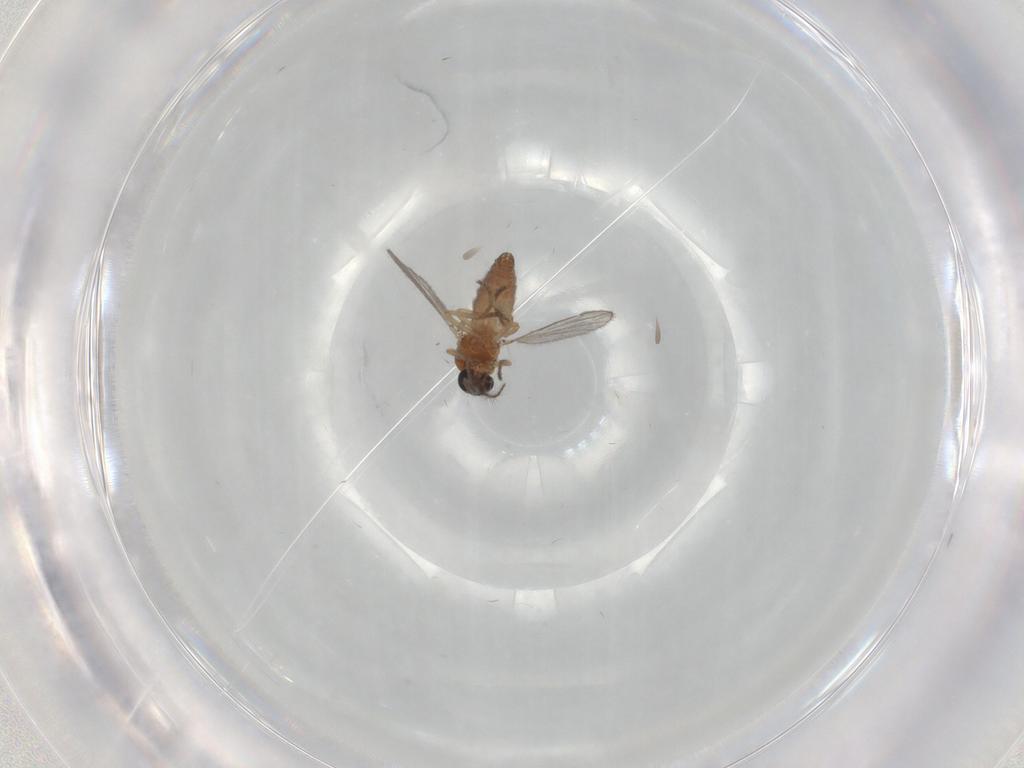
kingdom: Animalia
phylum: Arthropoda
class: Insecta
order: Diptera
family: Ceratopogonidae
